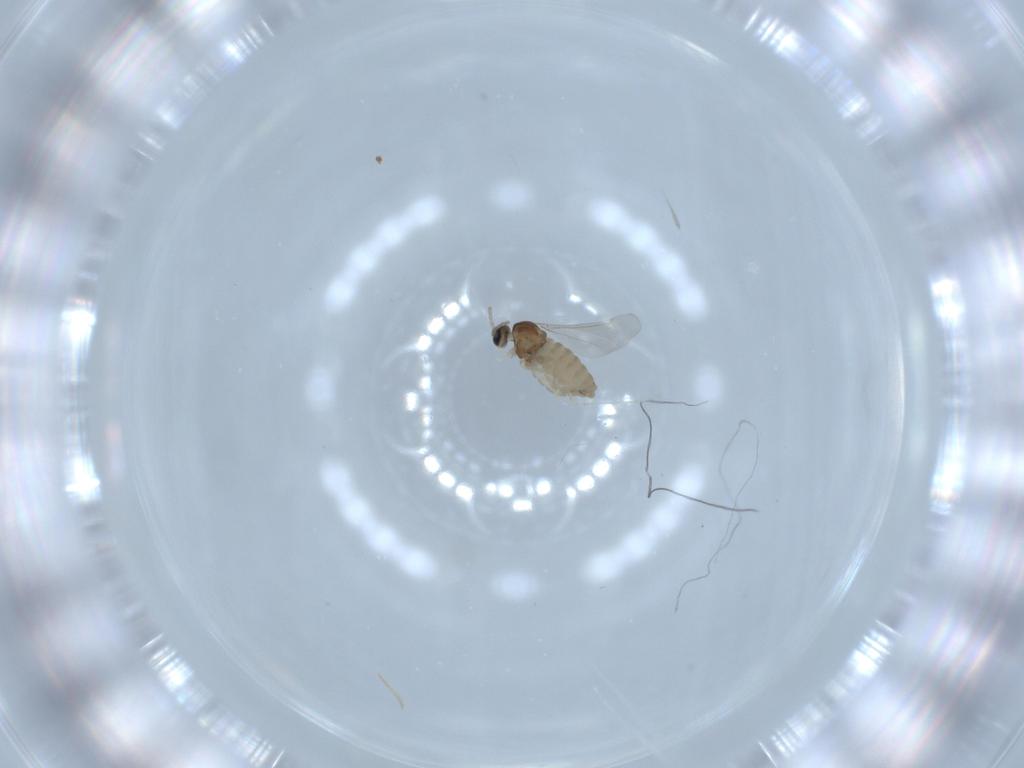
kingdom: Animalia
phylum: Arthropoda
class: Insecta
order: Diptera
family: Cecidomyiidae
